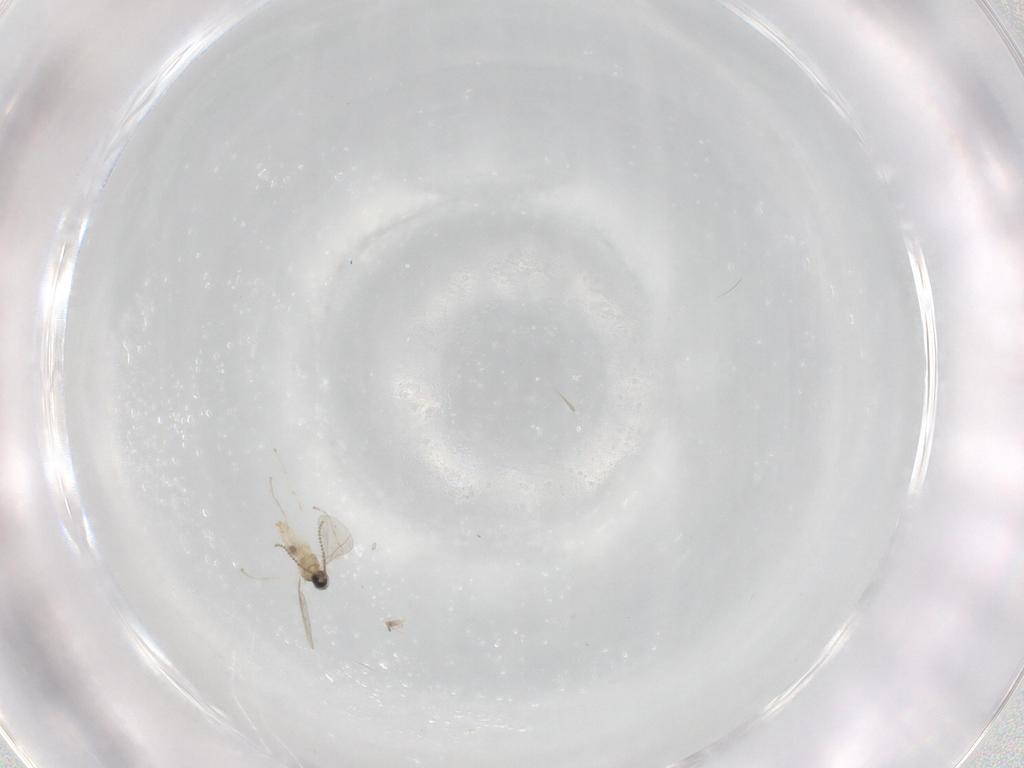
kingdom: Animalia
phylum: Arthropoda
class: Insecta
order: Diptera
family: Cecidomyiidae
